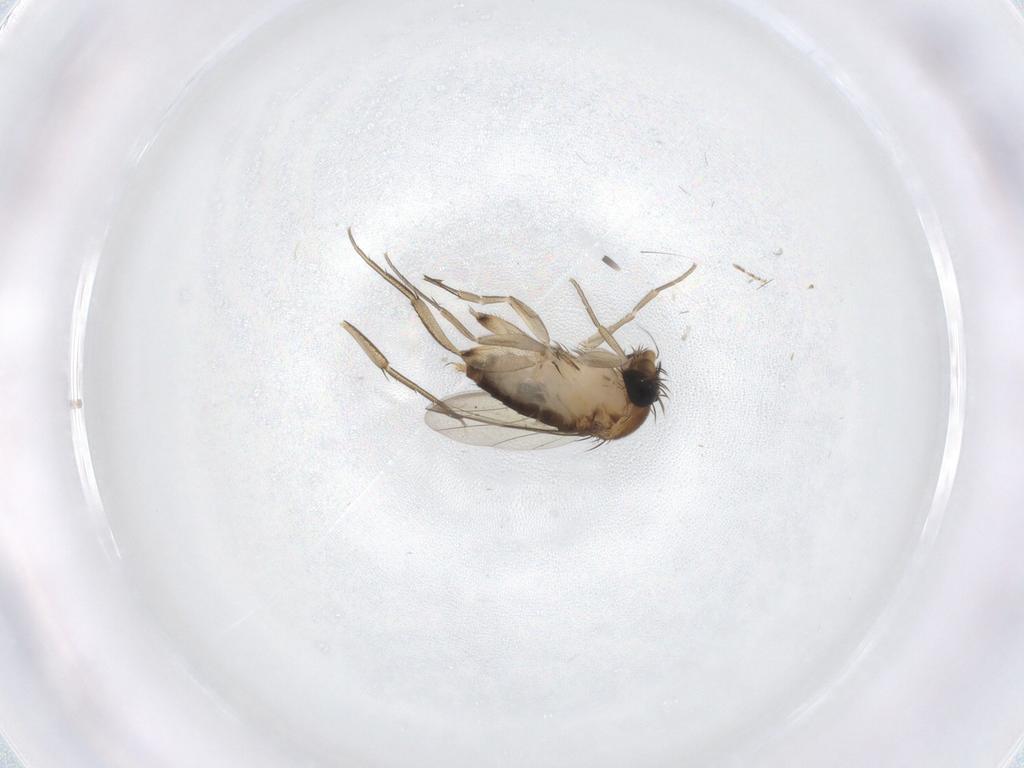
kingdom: Animalia
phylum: Arthropoda
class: Insecta
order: Diptera
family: Phoridae
